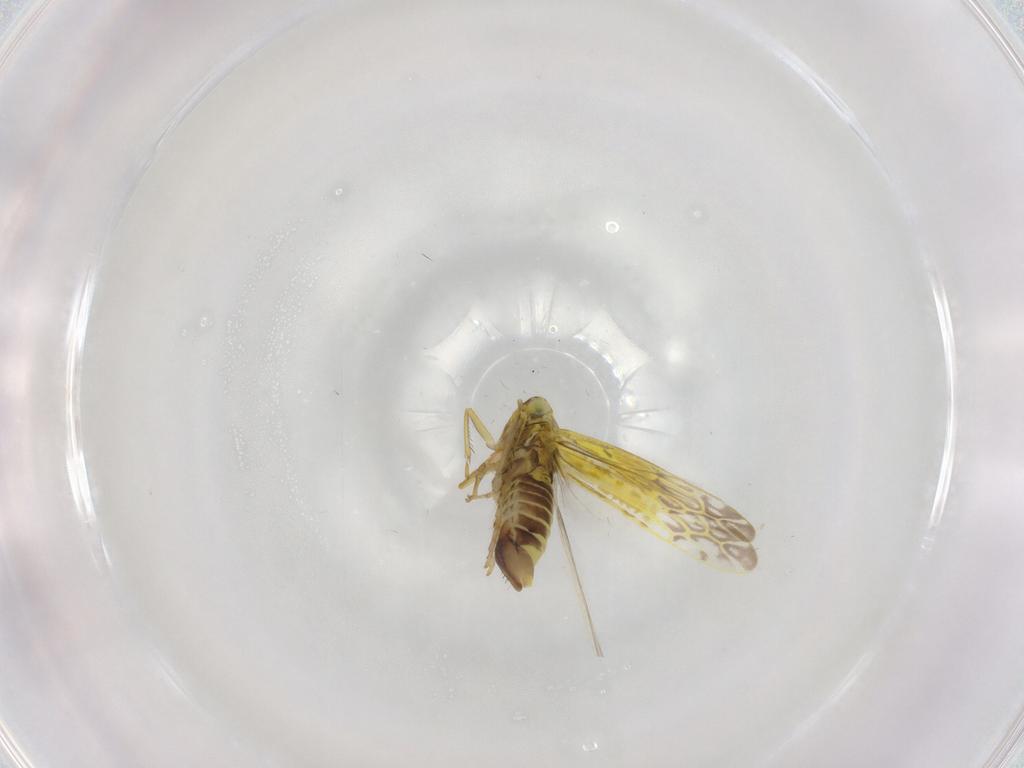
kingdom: Animalia
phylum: Arthropoda
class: Insecta
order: Hemiptera
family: Cicadellidae
